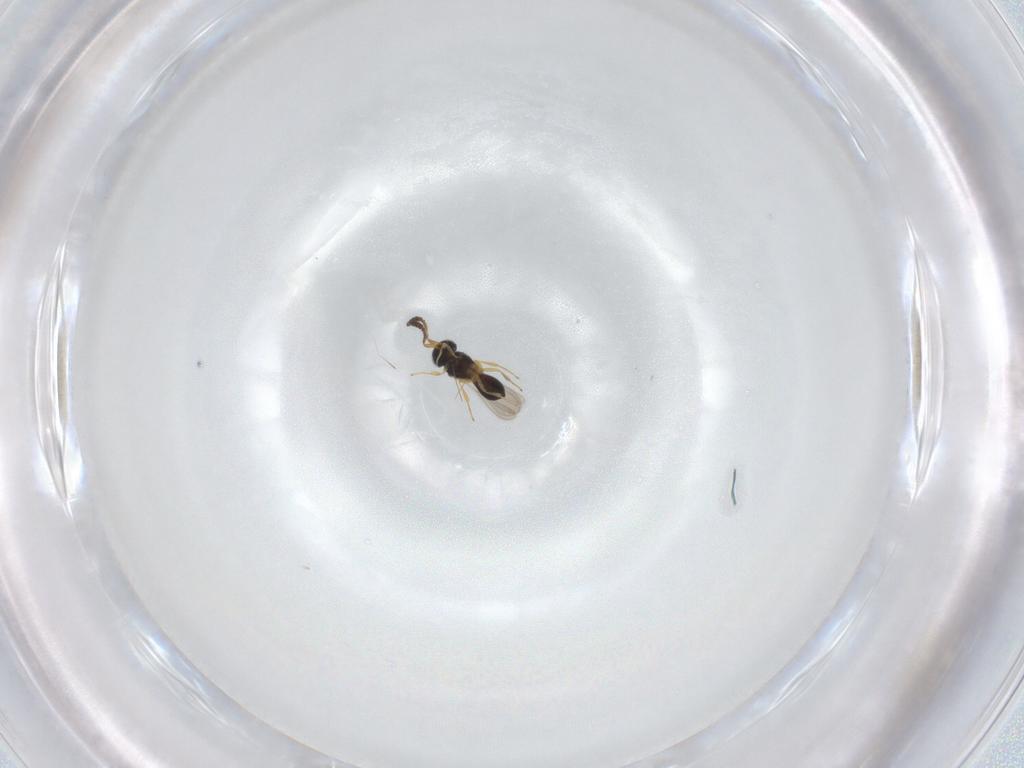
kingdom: Animalia
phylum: Arthropoda
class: Insecta
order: Hymenoptera
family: Scelionidae
